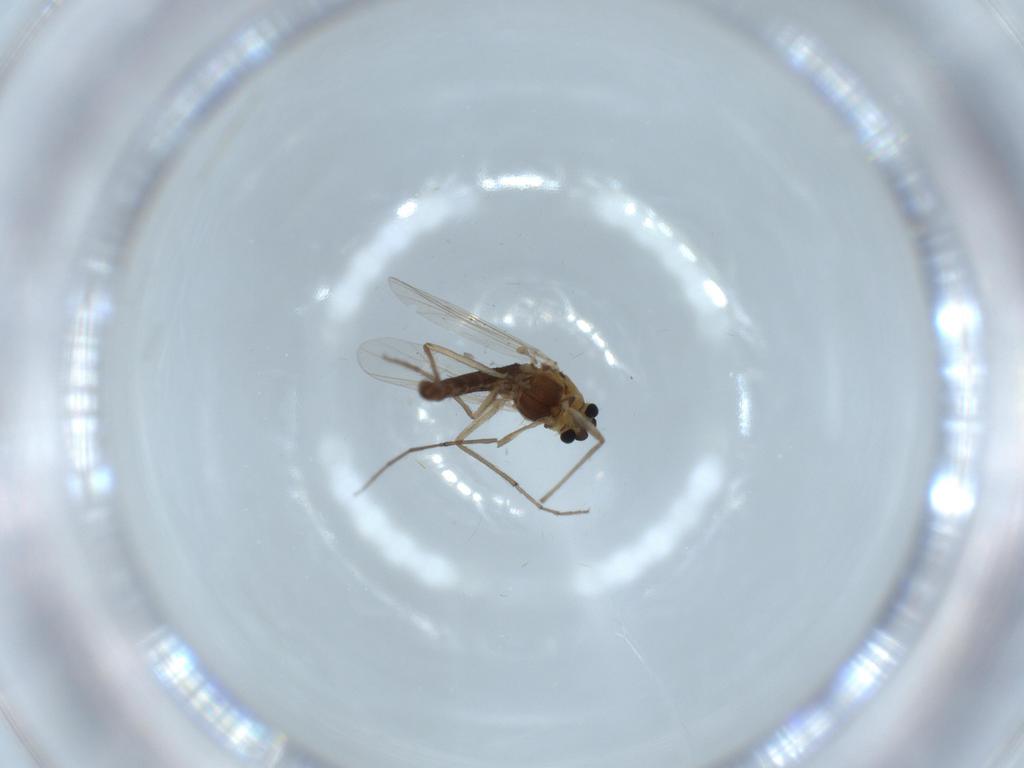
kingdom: Animalia
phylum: Arthropoda
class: Insecta
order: Diptera
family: Chironomidae
